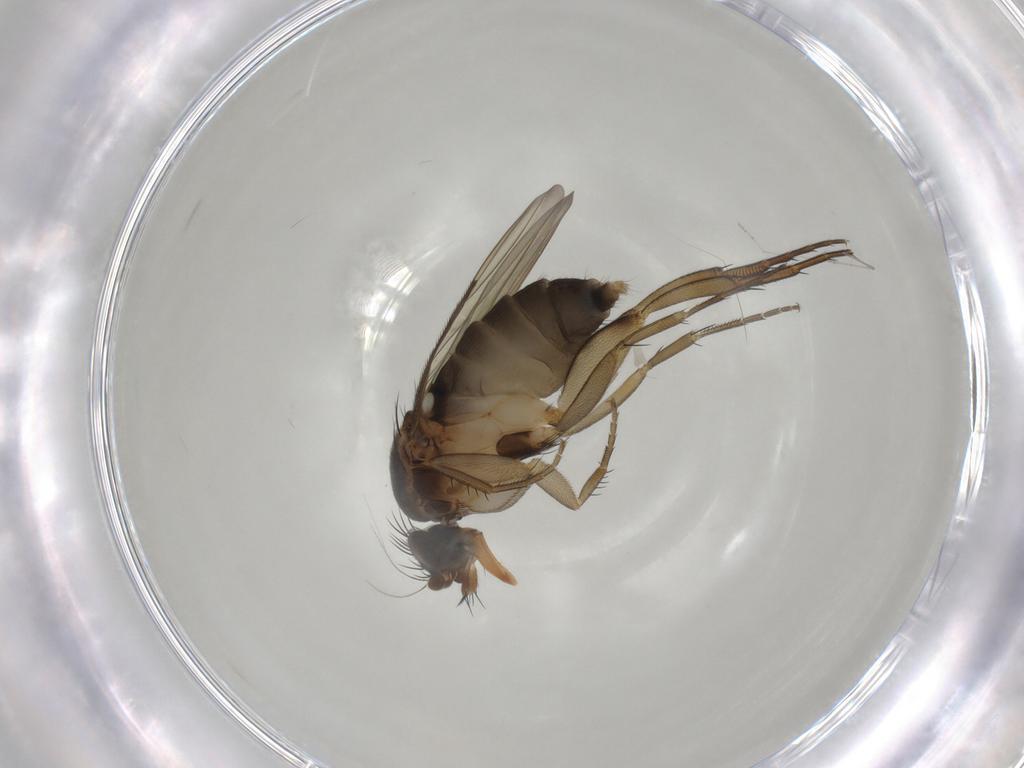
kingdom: Animalia
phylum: Arthropoda
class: Insecta
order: Diptera
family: Phoridae
